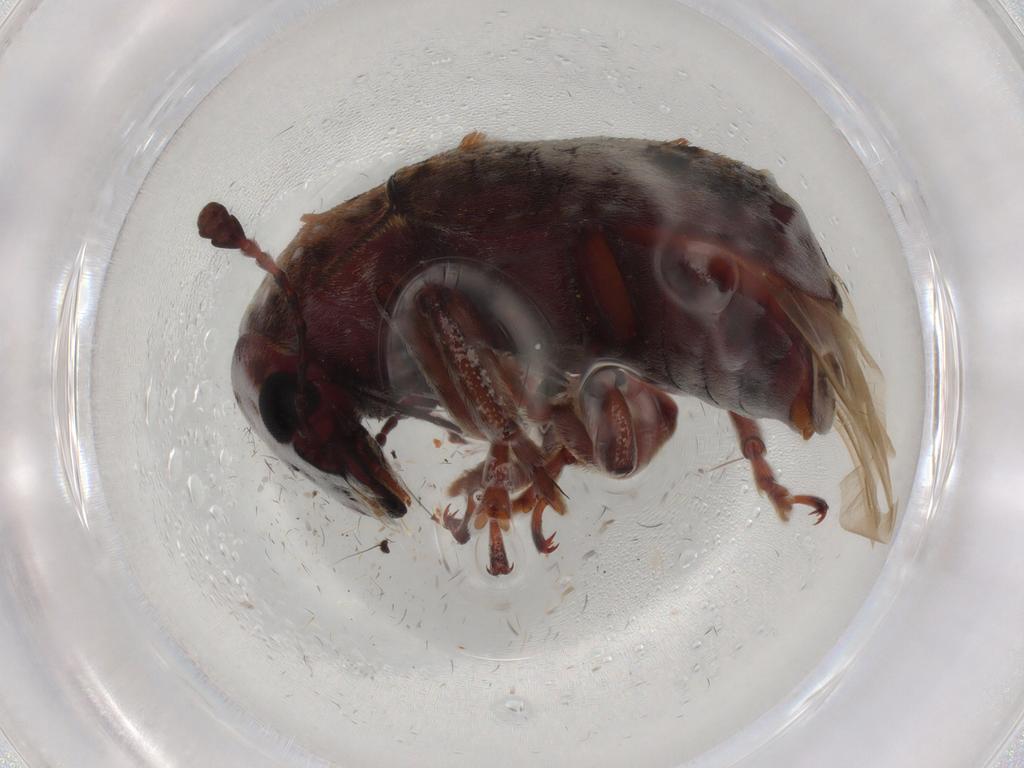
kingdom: Animalia
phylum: Arthropoda
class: Insecta
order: Coleoptera
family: Anthribidae
